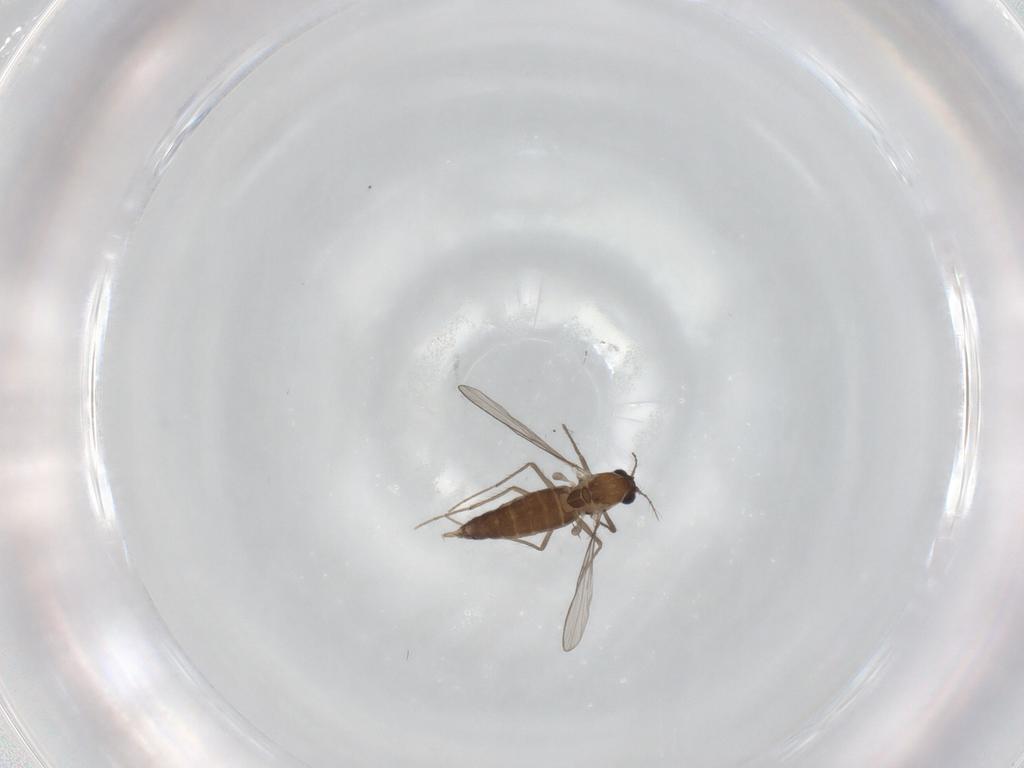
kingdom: Animalia
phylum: Arthropoda
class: Insecta
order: Diptera
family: Chironomidae
